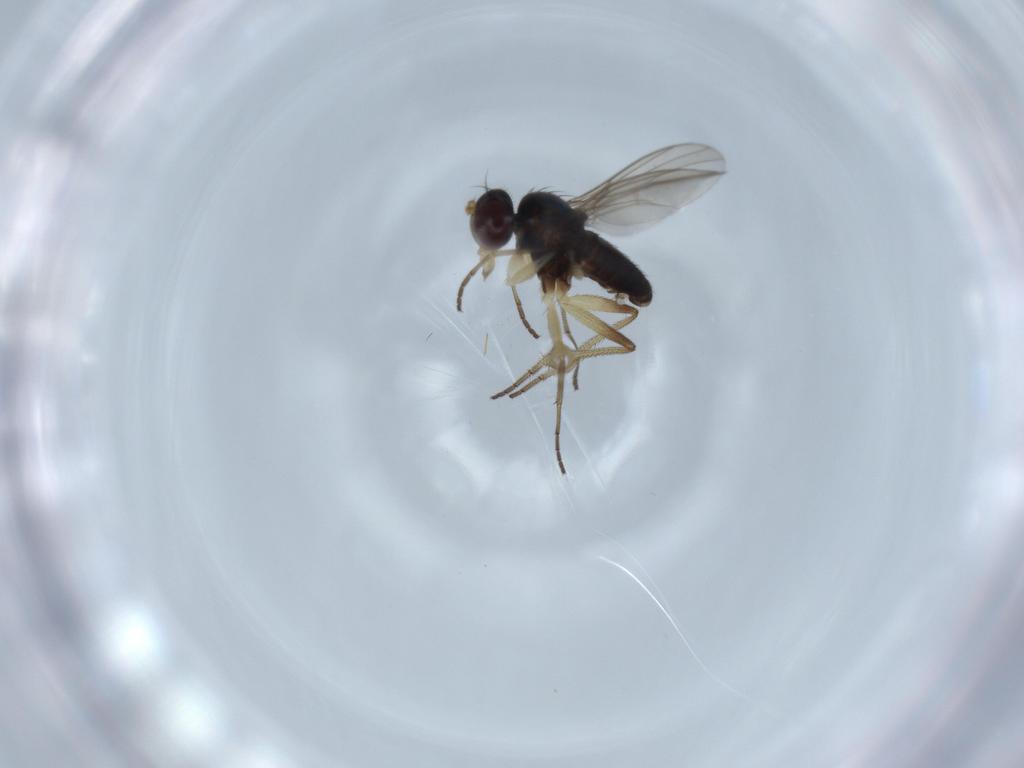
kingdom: Animalia
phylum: Arthropoda
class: Insecta
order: Diptera
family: Dolichopodidae
